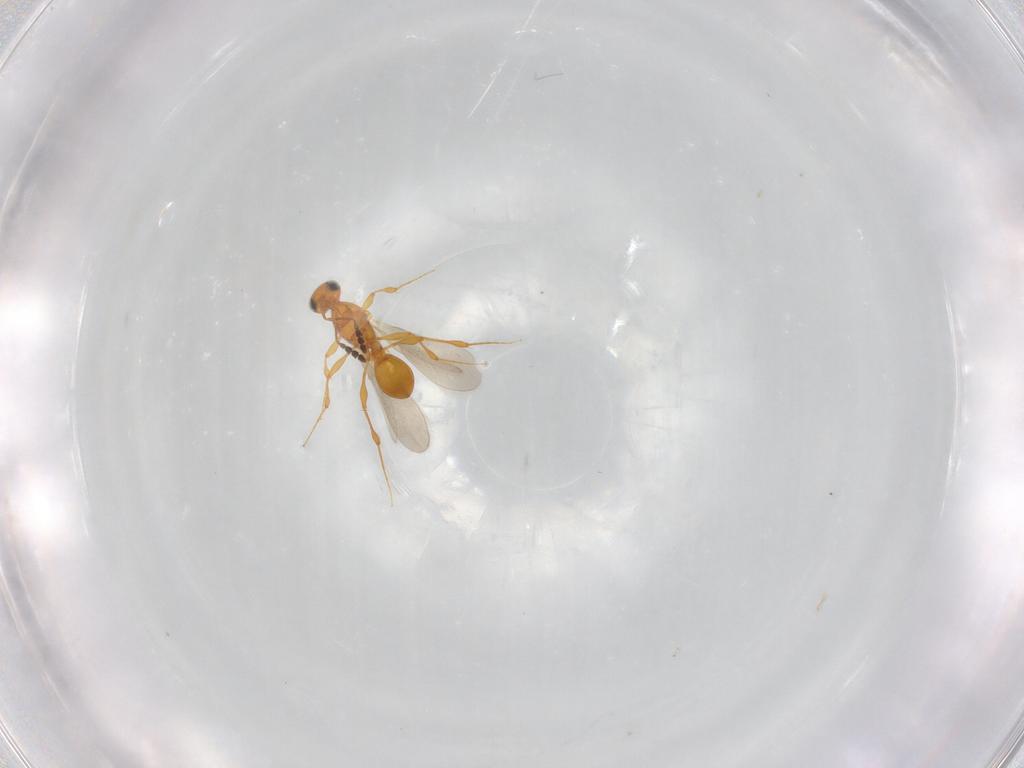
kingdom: Animalia
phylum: Arthropoda
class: Insecta
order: Hymenoptera
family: Platygastridae
